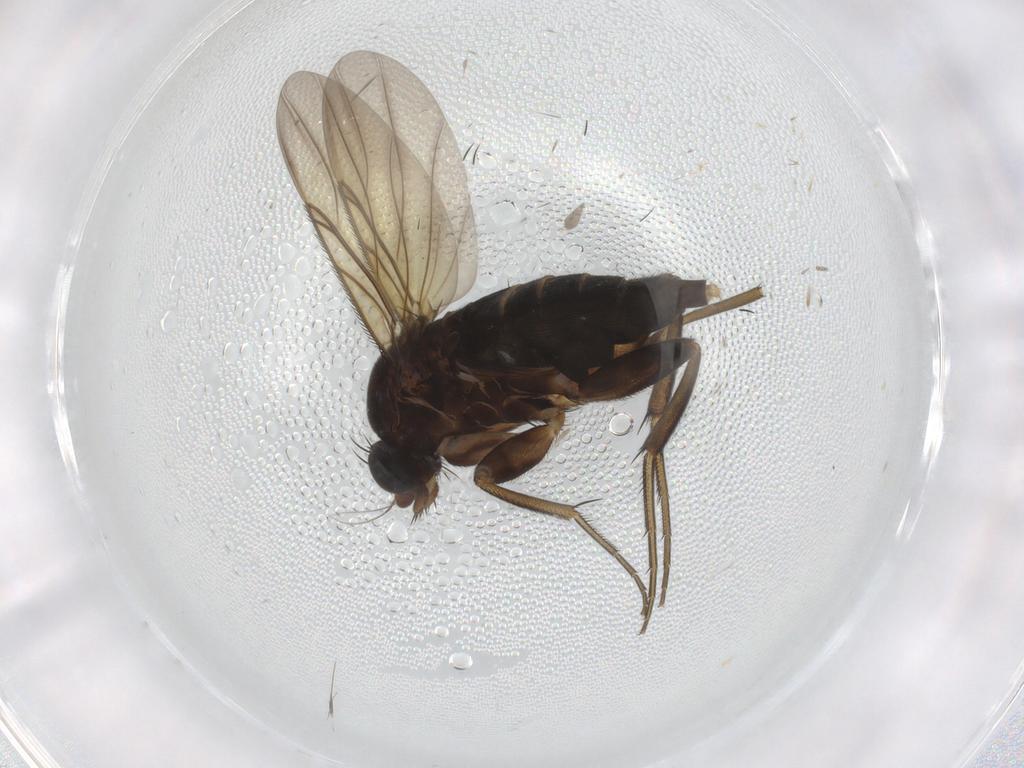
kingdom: Animalia
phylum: Arthropoda
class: Insecta
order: Diptera
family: Phoridae
